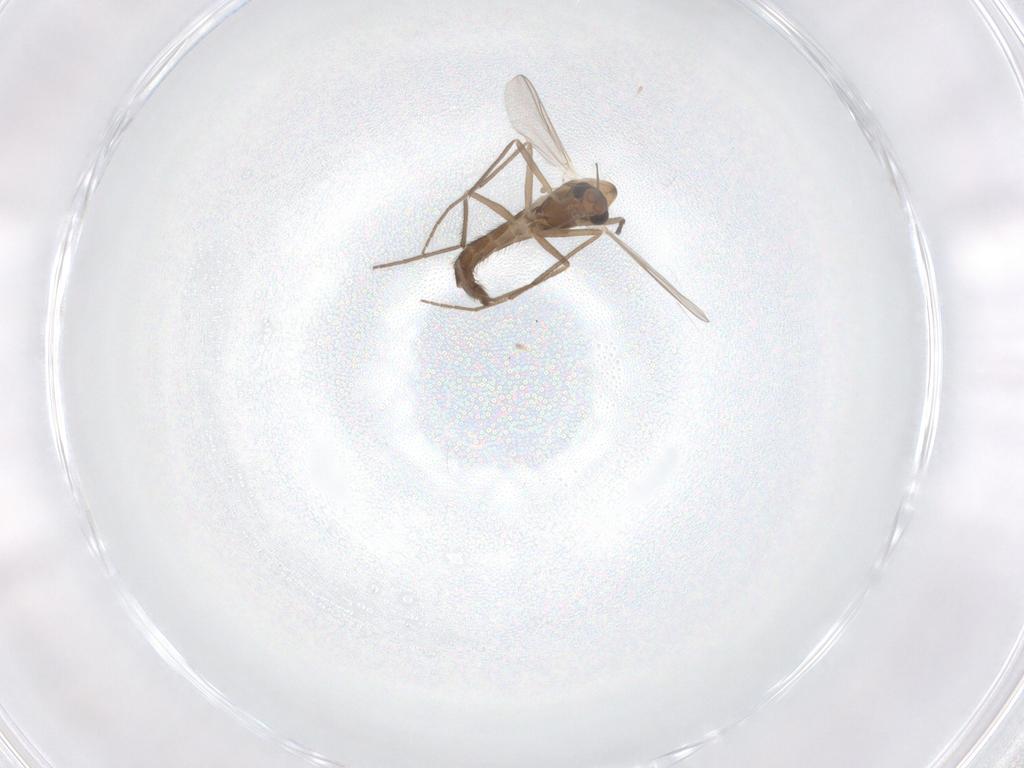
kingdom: Animalia
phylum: Arthropoda
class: Insecta
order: Diptera
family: Chironomidae
